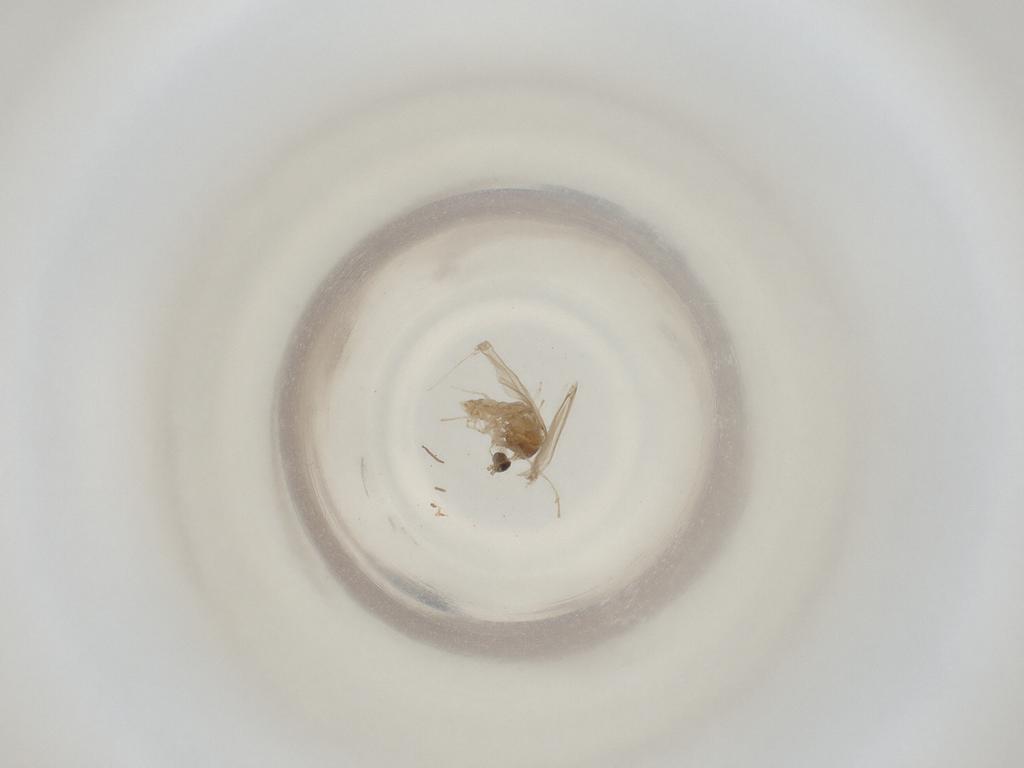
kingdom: Animalia
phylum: Arthropoda
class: Insecta
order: Diptera
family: Cecidomyiidae
